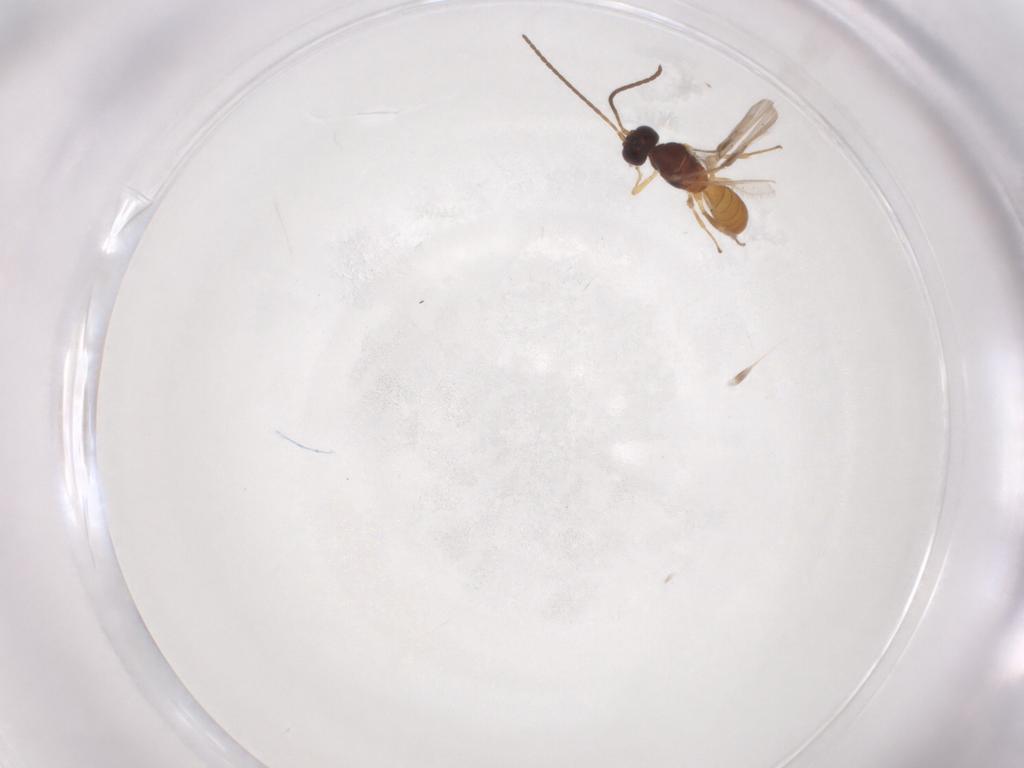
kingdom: Animalia
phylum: Arthropoda
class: Insecta
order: Hymenoptera
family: Braconidae
